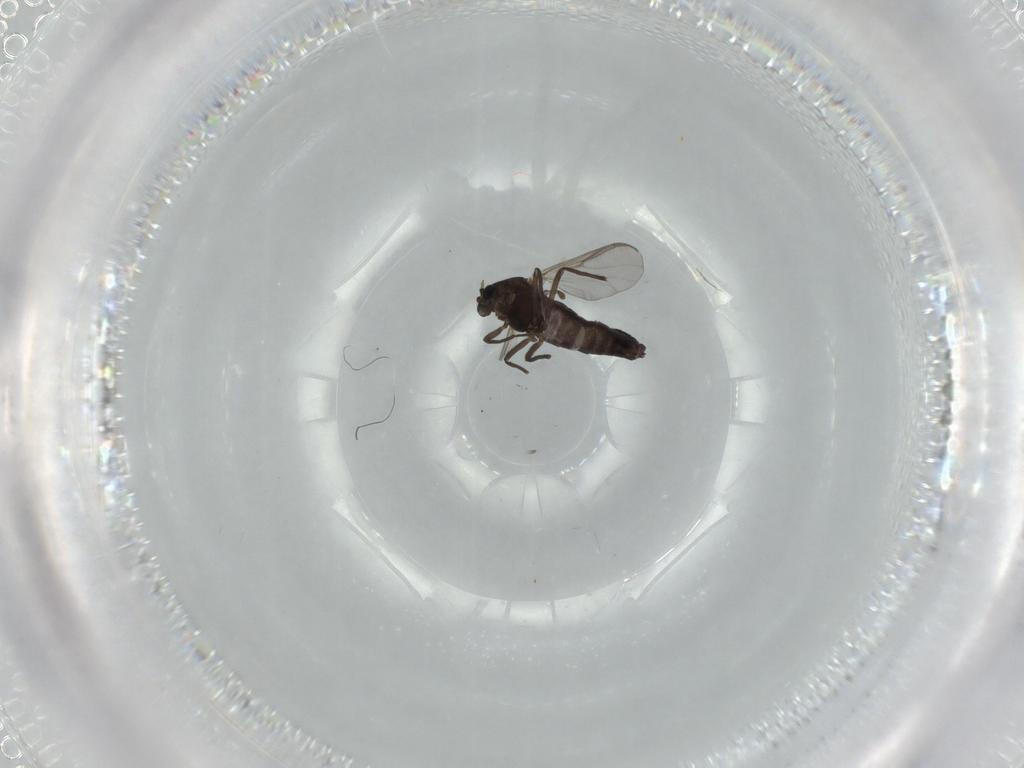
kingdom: Animalia
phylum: Arthropoda
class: Insecta
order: Diptera
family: Chironomidae
